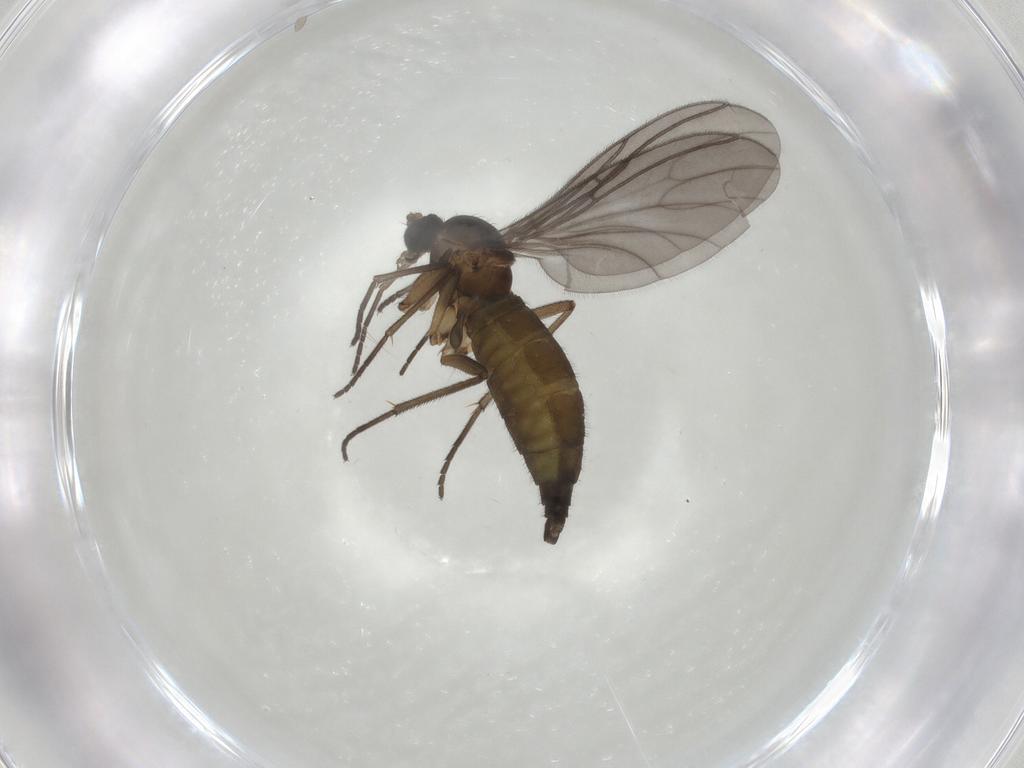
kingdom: Animalia
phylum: Arthropoda
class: Insecta
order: Diptera
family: Sciaridae
